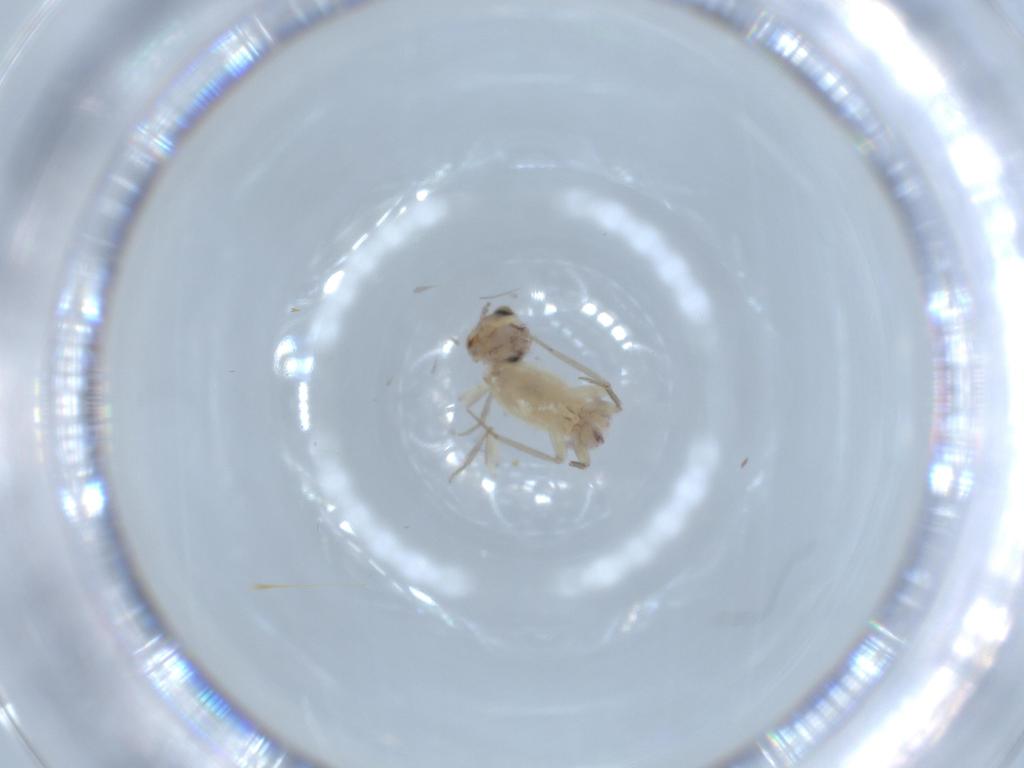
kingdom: Animalia
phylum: Arthropoda
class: Insecta
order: Psocodea
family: Lepidopsocidae
